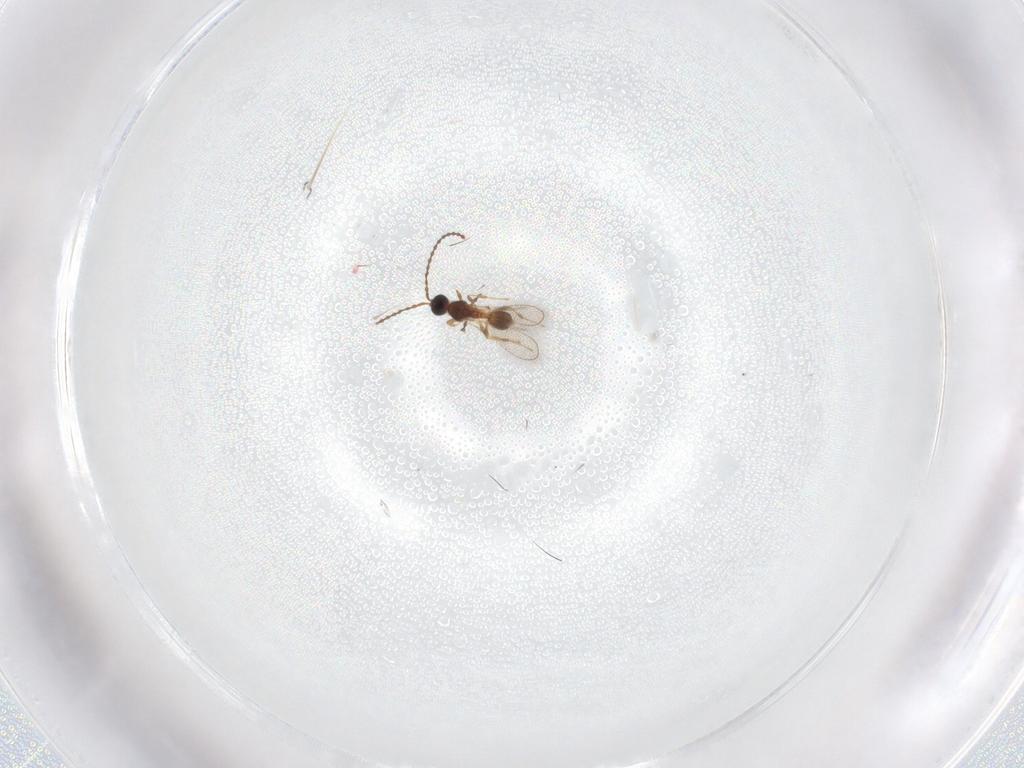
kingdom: Animalia
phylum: Arthropoda
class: Insecta
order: Hymenoptera
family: Diapriidae
